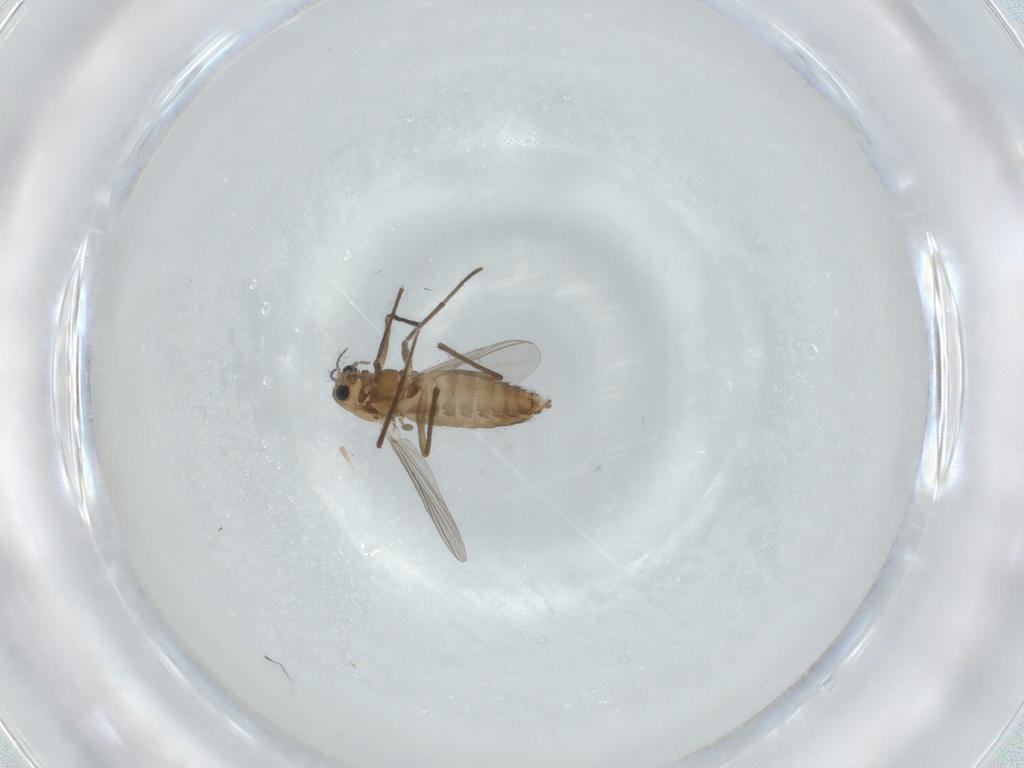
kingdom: Animalia
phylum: Arthropoda
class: Insecta
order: Diptera
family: Chironomidae
